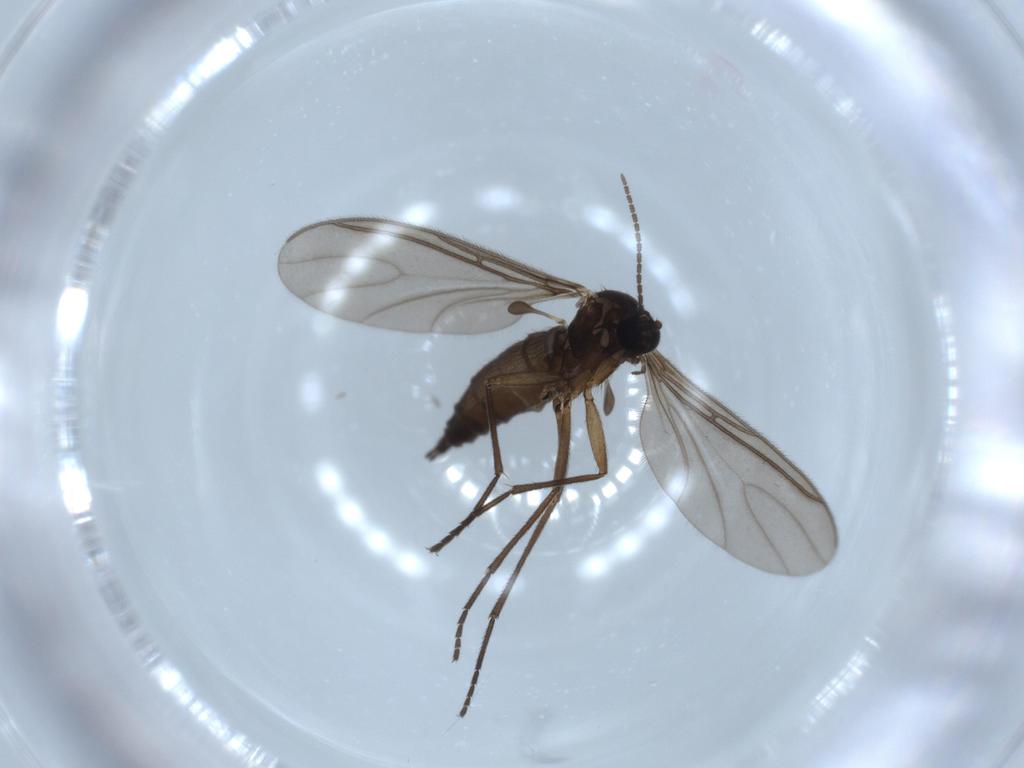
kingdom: Animalia
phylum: Arthropoda
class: Insecta
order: Diptera
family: Sciaridae
